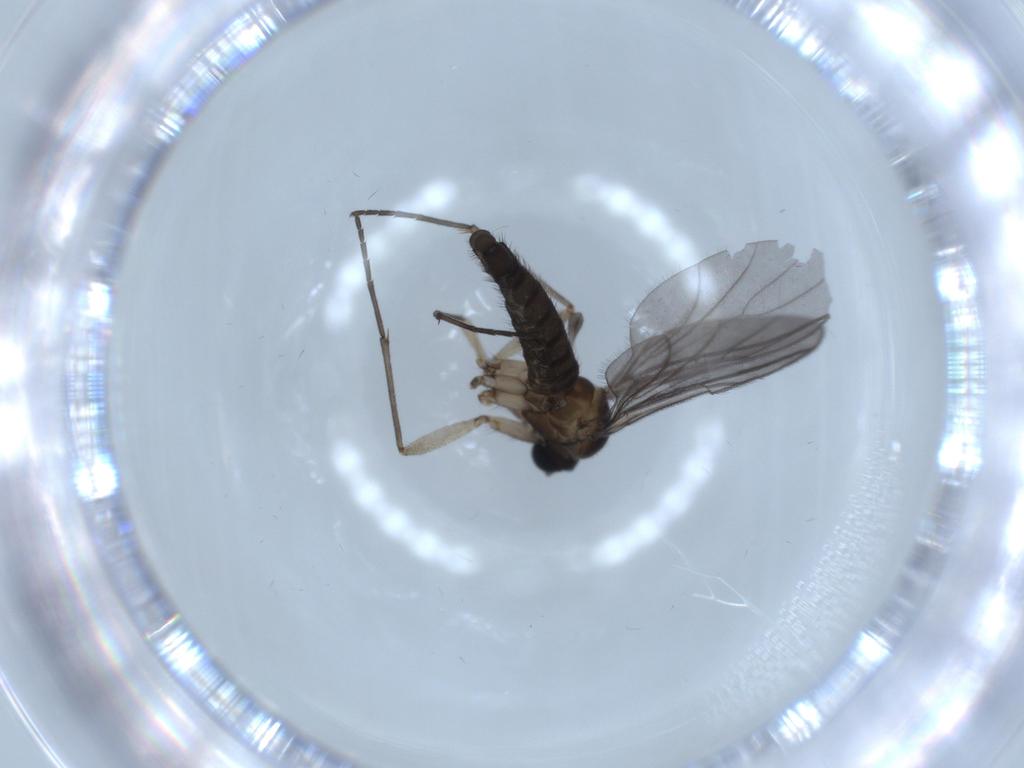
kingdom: Animalia
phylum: Arthropoda
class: Insecta
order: Diptera
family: Sciaridae
